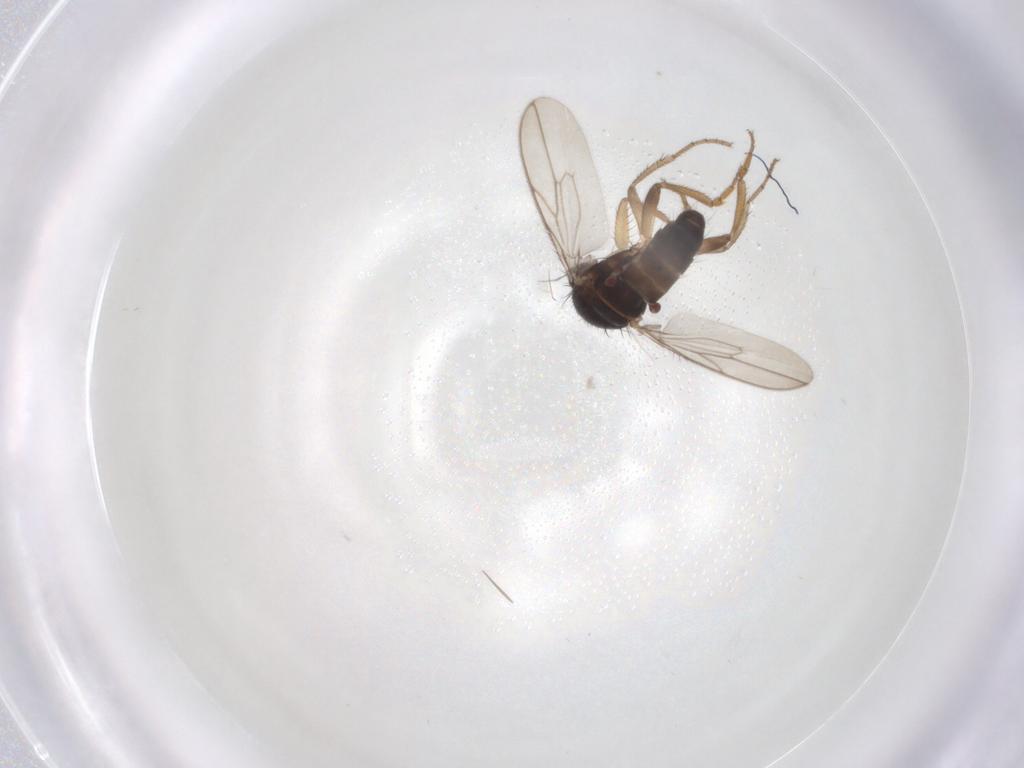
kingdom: Animalia
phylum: Arthropoda
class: Insecta
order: Diptera
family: Sphaeroceridae
